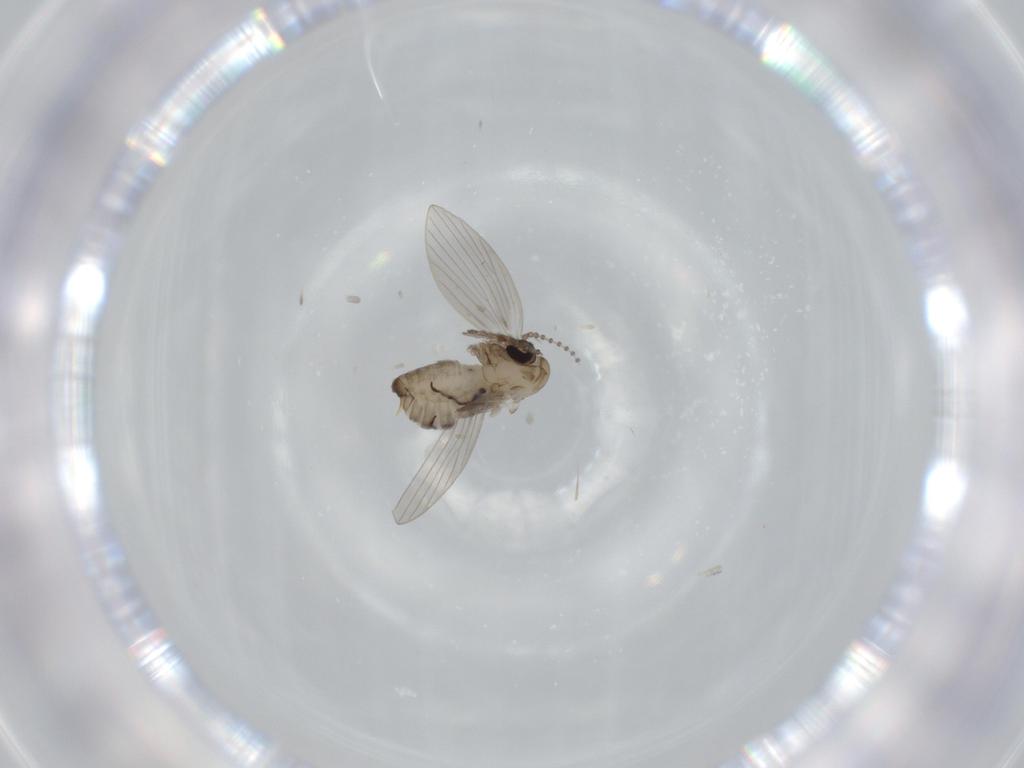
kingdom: Animalia
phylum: Arthropoda
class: Insecta
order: Diptera
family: Psychodidae
